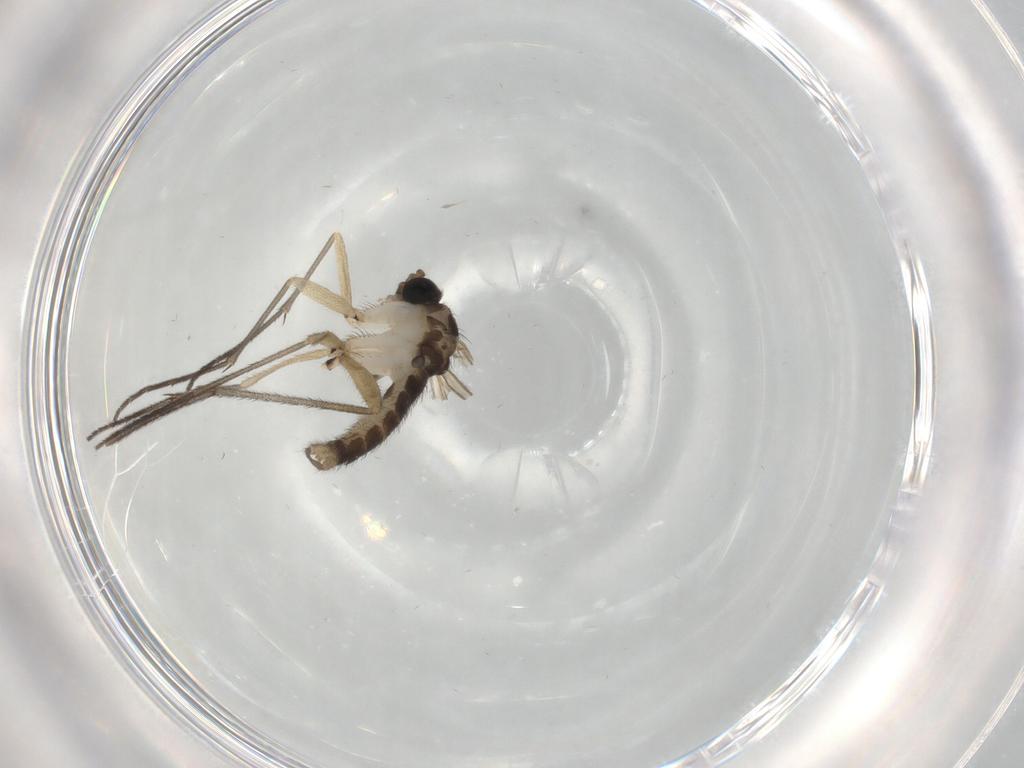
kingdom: Animalia
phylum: Arthropoda
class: Insecta
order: Diptera
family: Sciaridae
